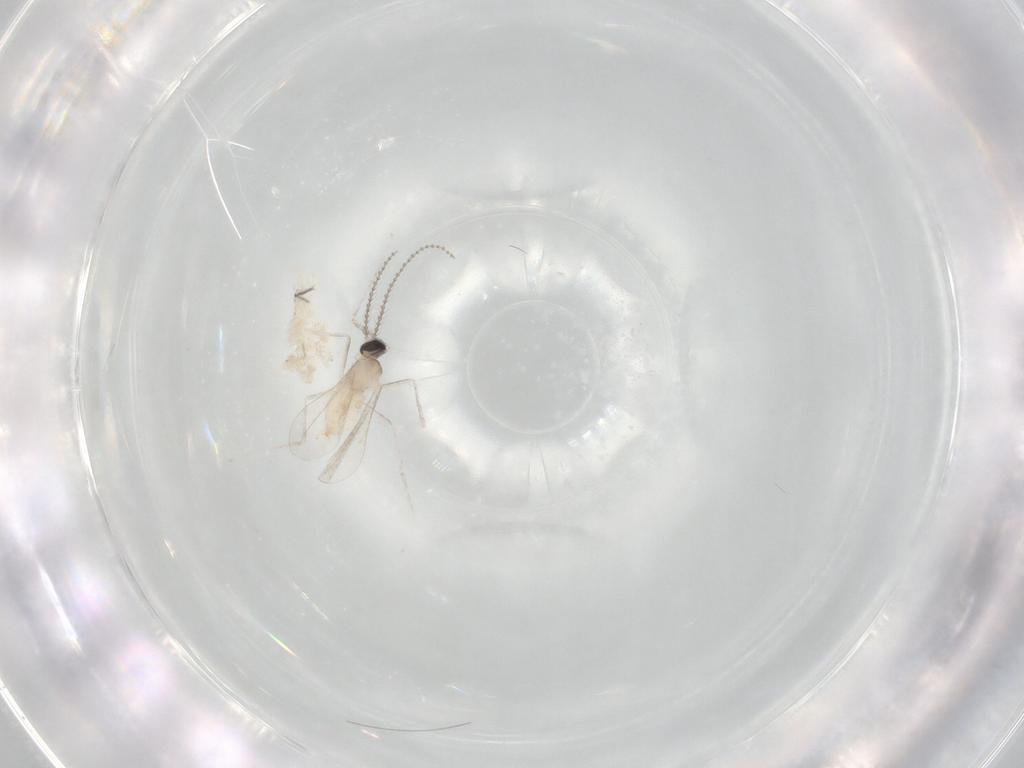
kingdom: Animalia
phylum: Arthropoda
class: Insecta
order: Diptera
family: Cecidomyiidae
